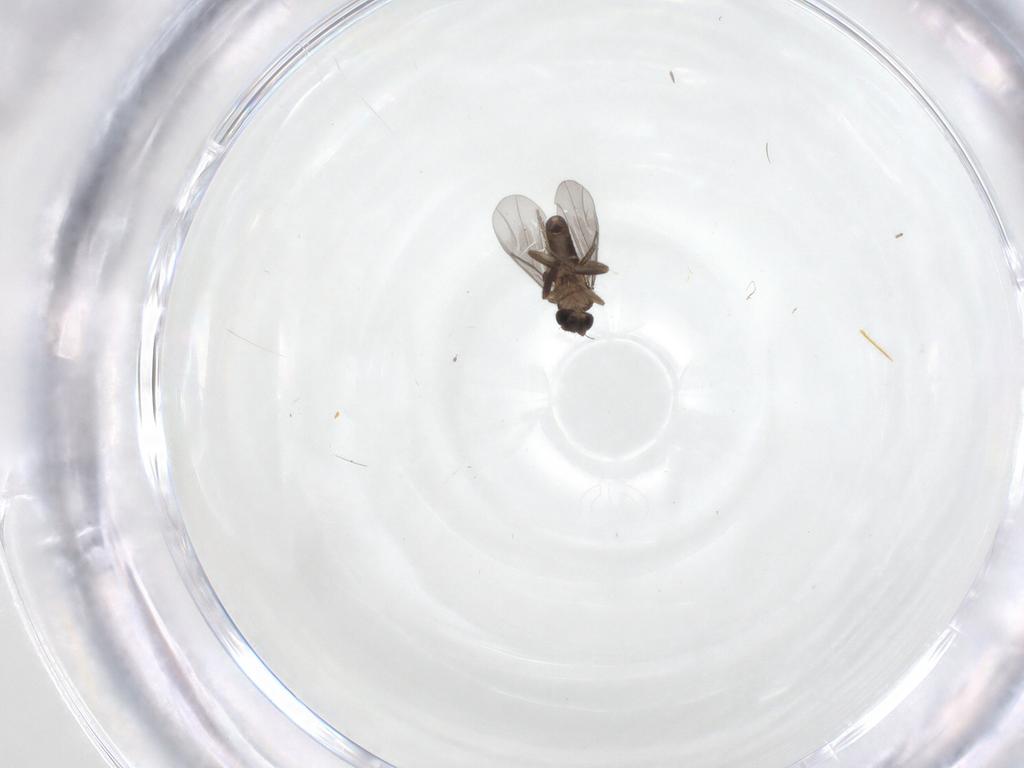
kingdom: Animalia
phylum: Arthropoda
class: Insecta
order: Diptera
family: Cecidomyiidae
